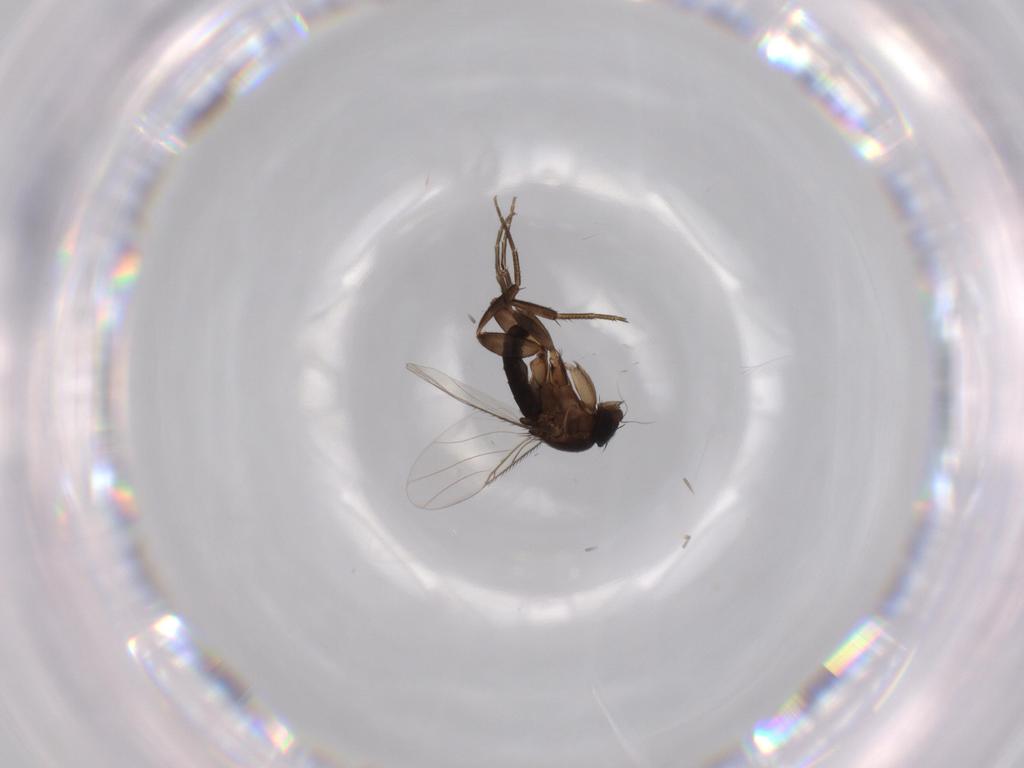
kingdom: Animalia
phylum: Arthropoda
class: Insecta
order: Diptera
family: Phoridae
